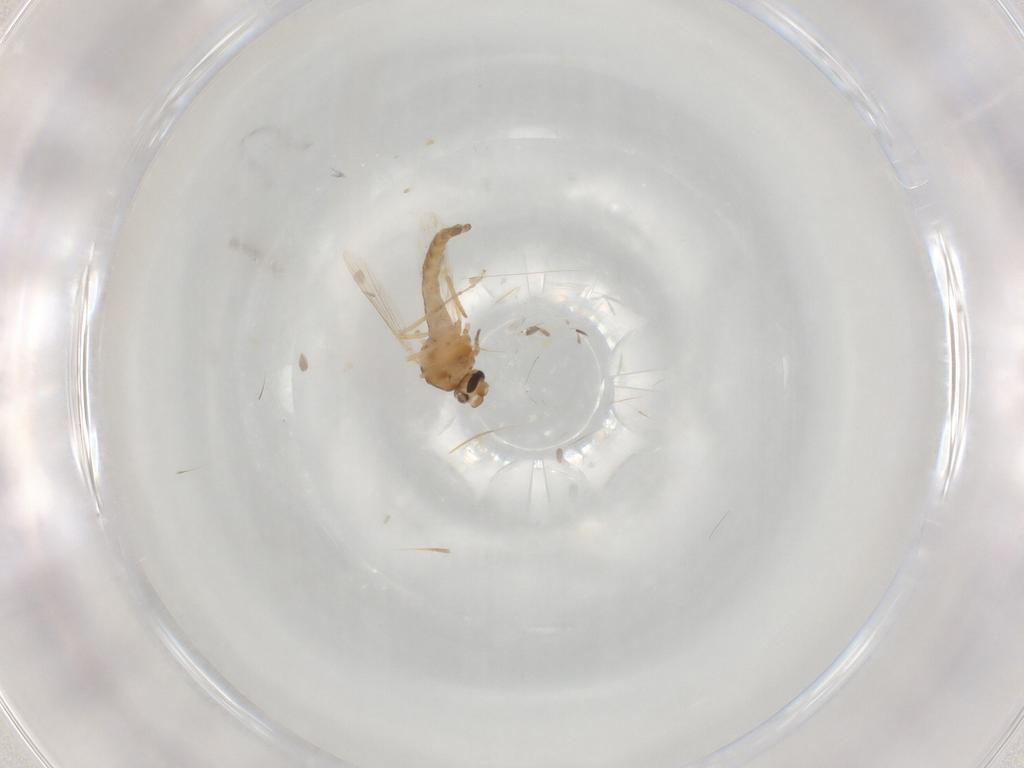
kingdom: Animalia
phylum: Arthropoda
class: Insecta
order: Diptera
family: Ceratopogonidae
